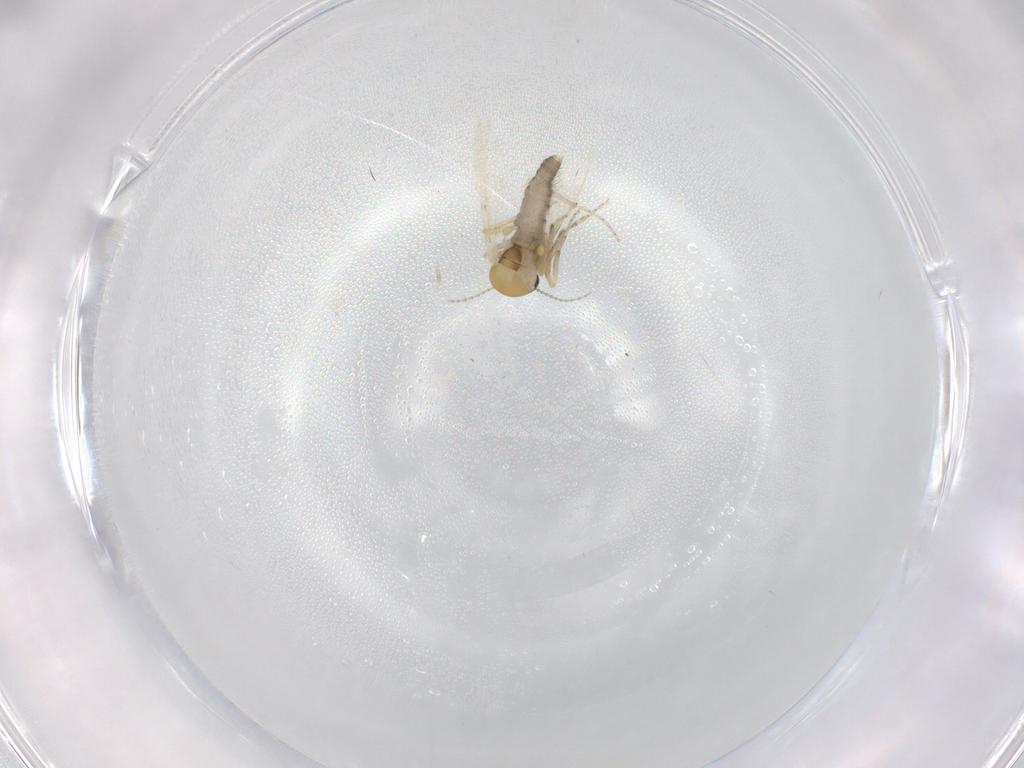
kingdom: Animalia
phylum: Arthropoda
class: Insecta
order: Diptera
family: Ceratopogonidae
